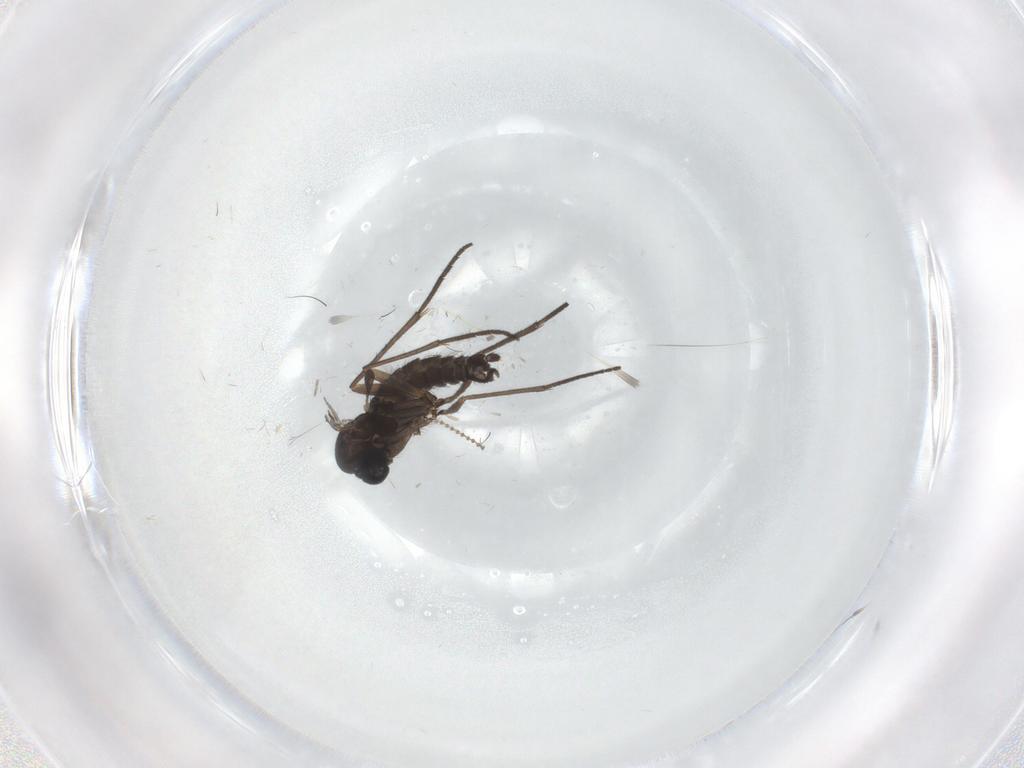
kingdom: Animalia
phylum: Arthropoda
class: Insecta
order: Diptera
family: Sciaridae
